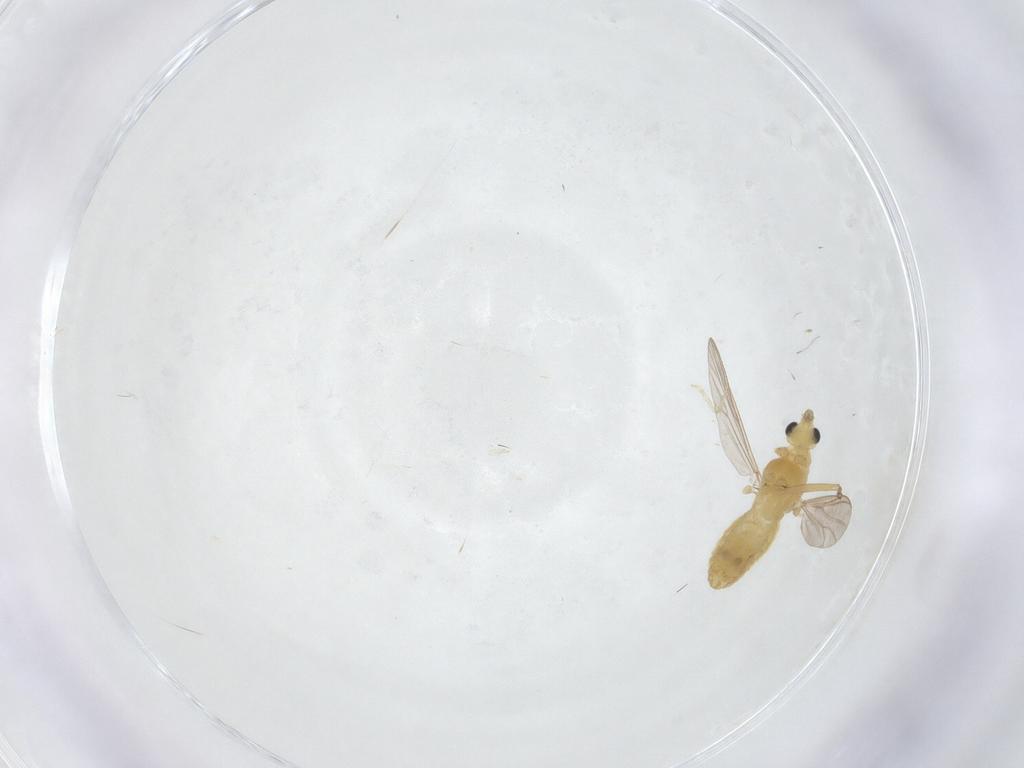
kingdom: Animalia
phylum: Arthropoda
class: Insecta
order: Diptera
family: Chironomidae
